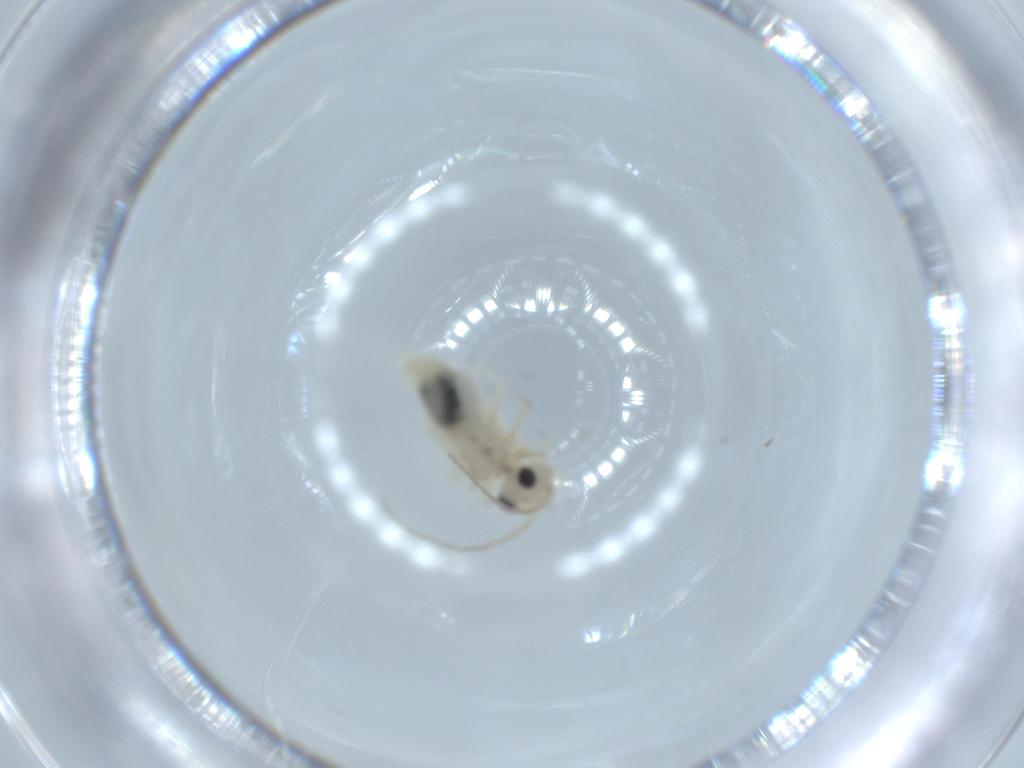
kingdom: Animalia
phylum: Arthropoda
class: Insecta
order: Psocodea
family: Caeciliusidae
